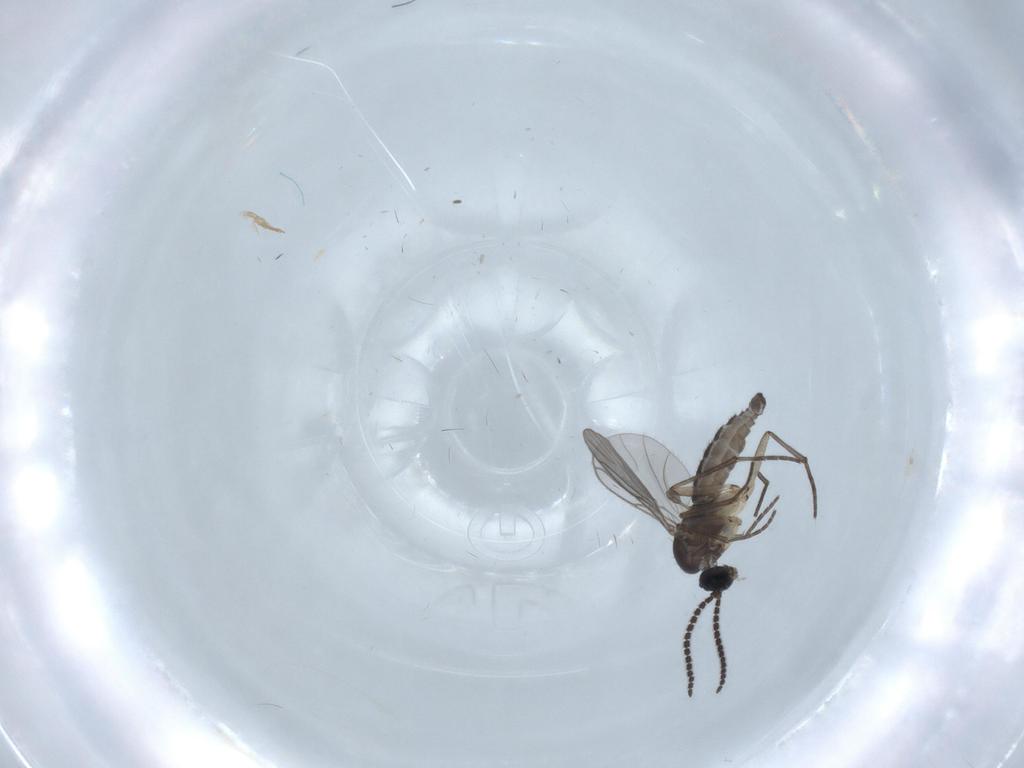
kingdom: Animalia
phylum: Arthropoda
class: Insecta
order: Diptera
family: Sciaridae
